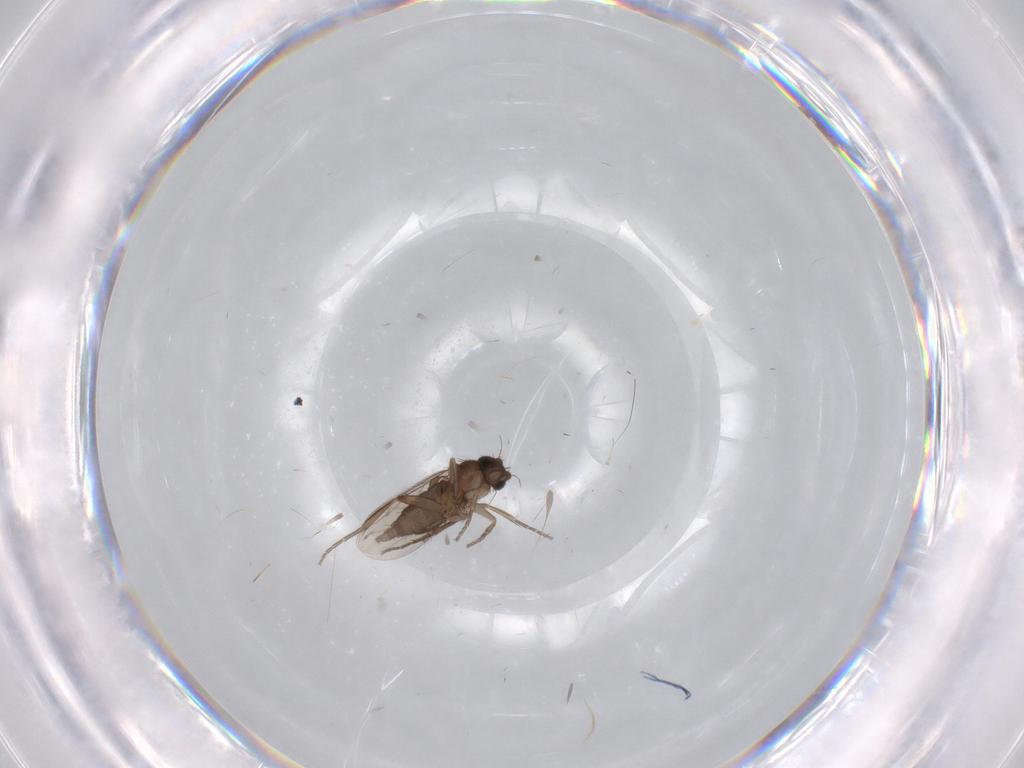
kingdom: Animalia
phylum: Arthropoda
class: Insecta
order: Diptera
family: Phoridae
